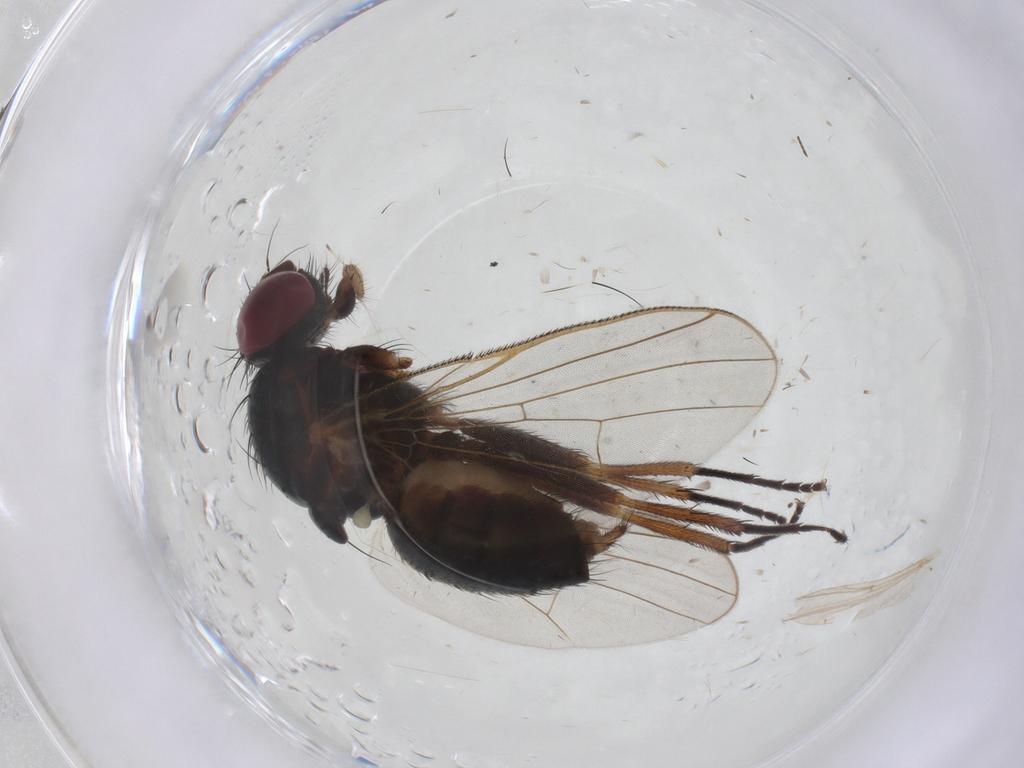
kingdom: Animalia
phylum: Arthropoda
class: Insecta
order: Diptera
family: Fannia
